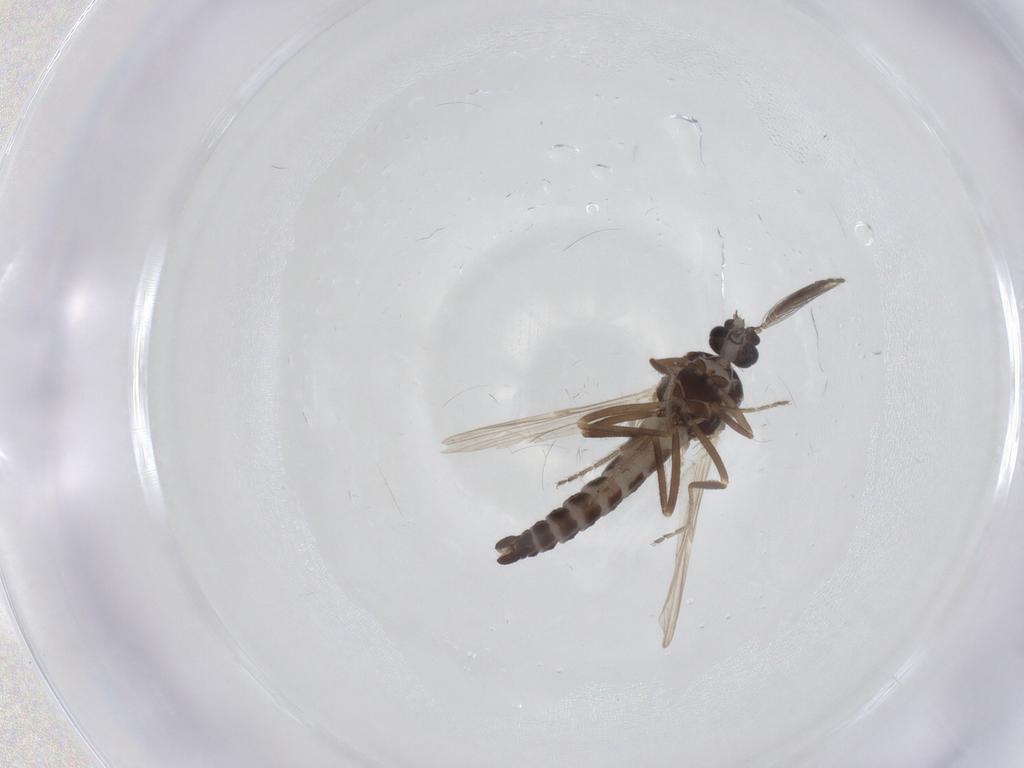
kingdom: Animalia
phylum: Arthropoda
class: Insecta
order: Diptera
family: Ceratopogonidae
